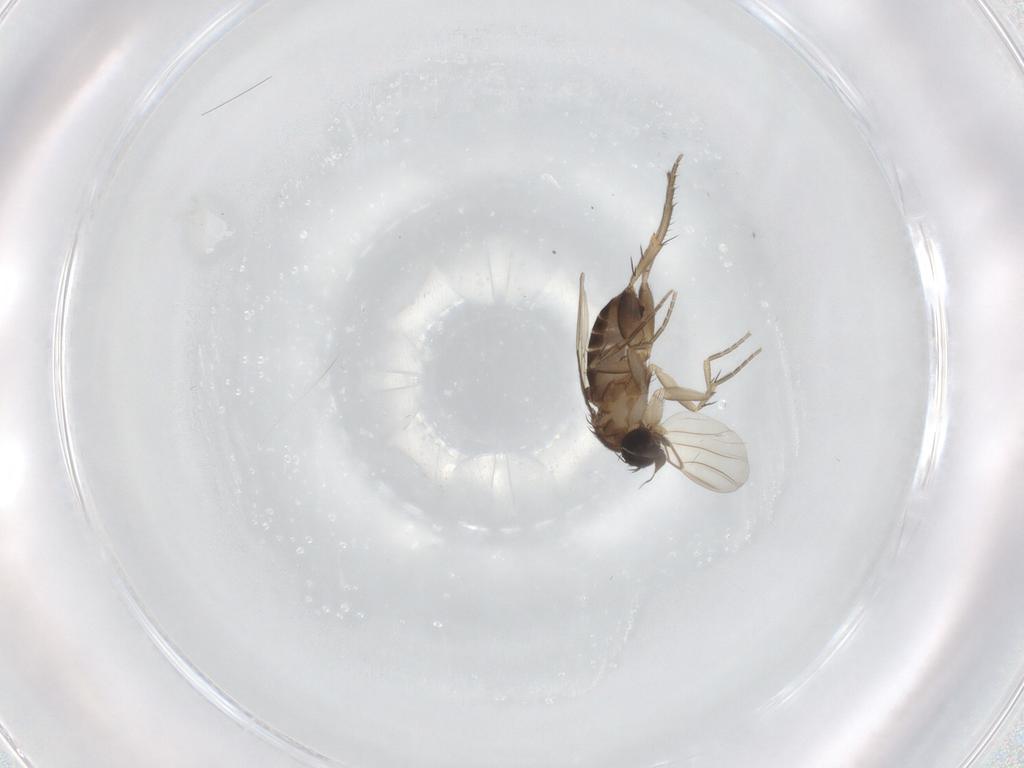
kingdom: Animalia
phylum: Arthropoda
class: Insecta
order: Diptera
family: Phoridae
